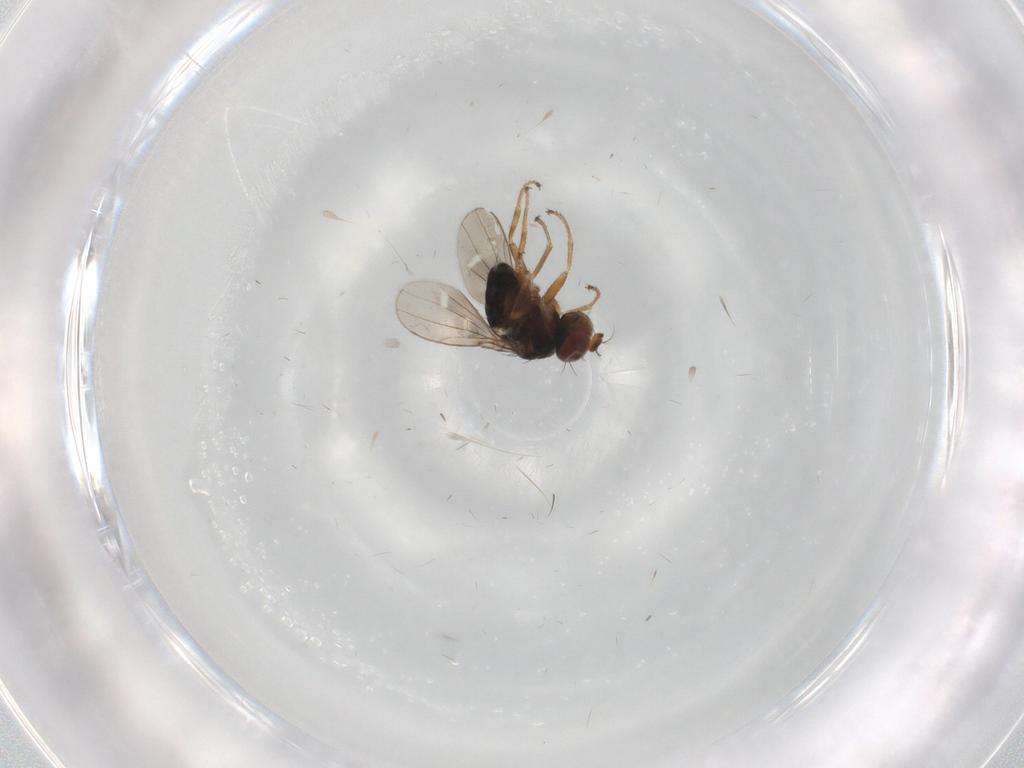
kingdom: Animalia
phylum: Arthropoda
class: Insecta
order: Diptera
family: Ephydridae
